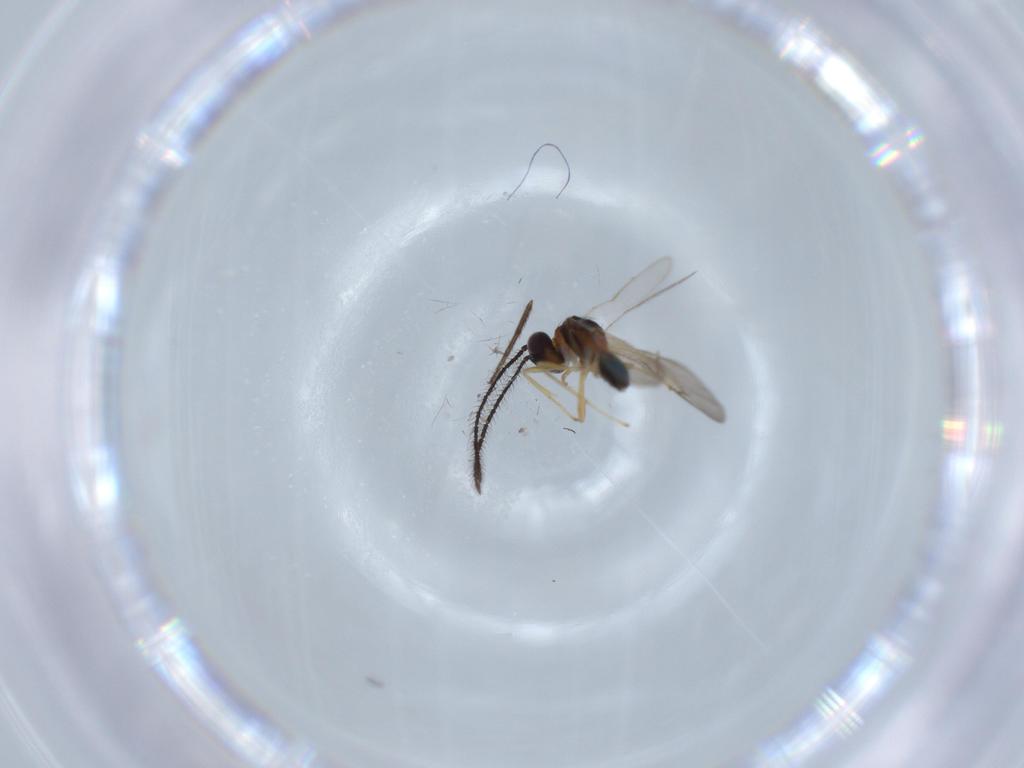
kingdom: Animalia
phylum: Arthropoda
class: Insecta
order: Hymenoptera
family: Diparidae
